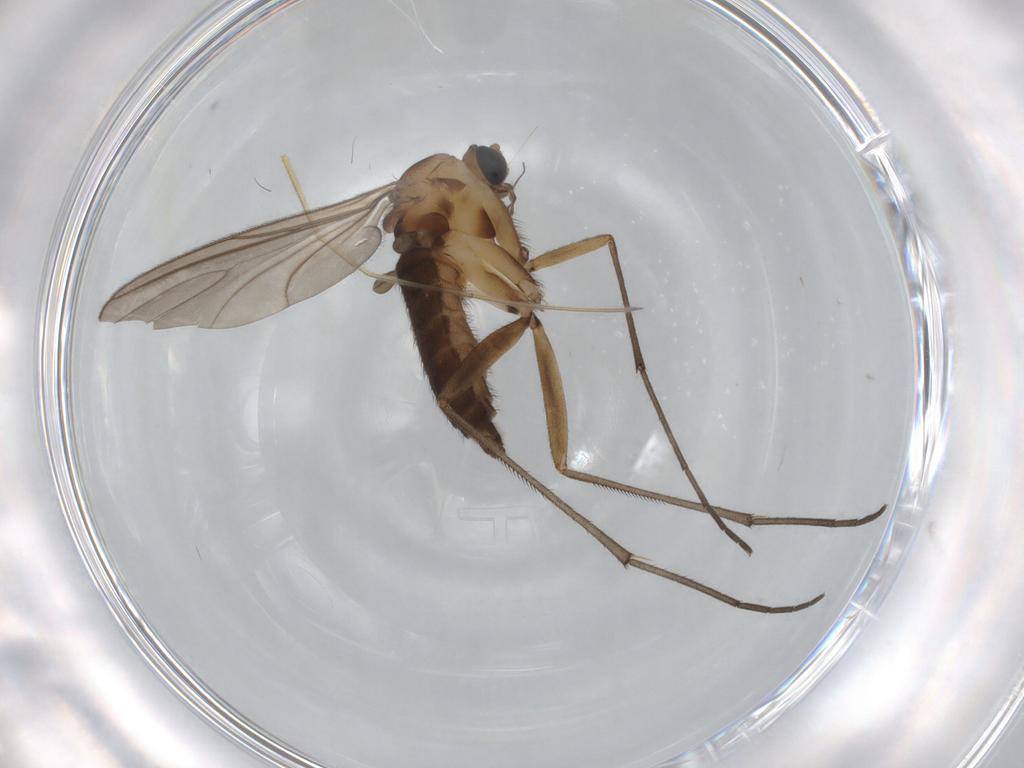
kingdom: Animalia
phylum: Arthropoda
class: Insecta
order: Diptera
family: Sciaridae
